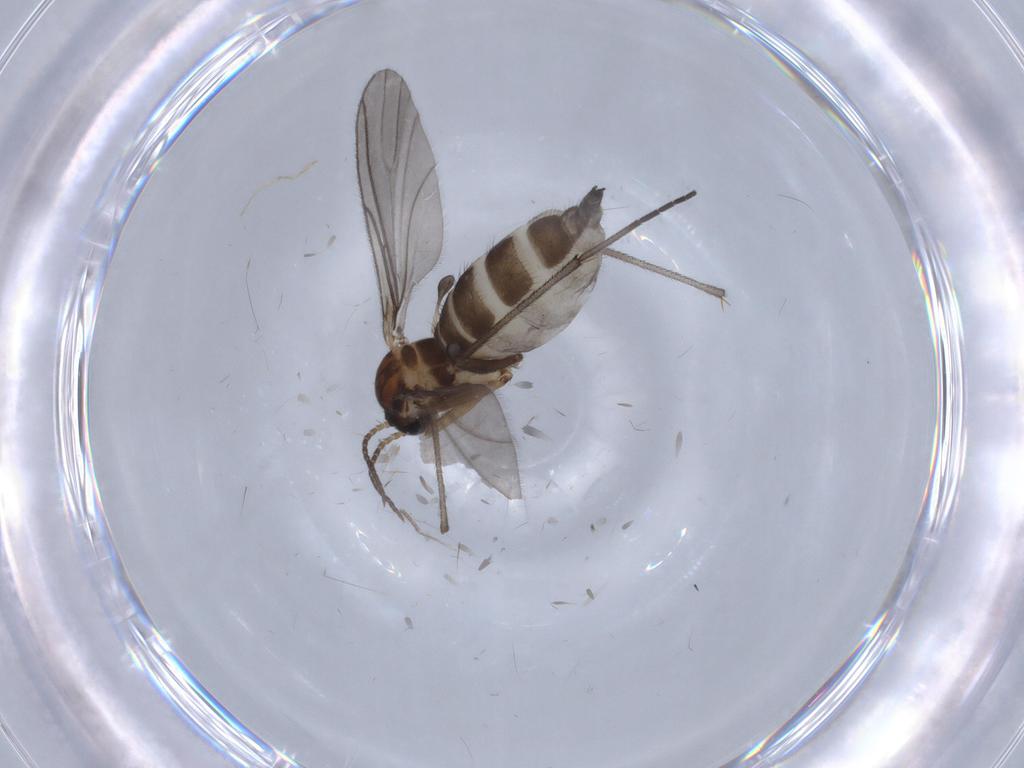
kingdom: Animalia
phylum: Arthropoda
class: Insecta
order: Diptera
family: Sciaridae
